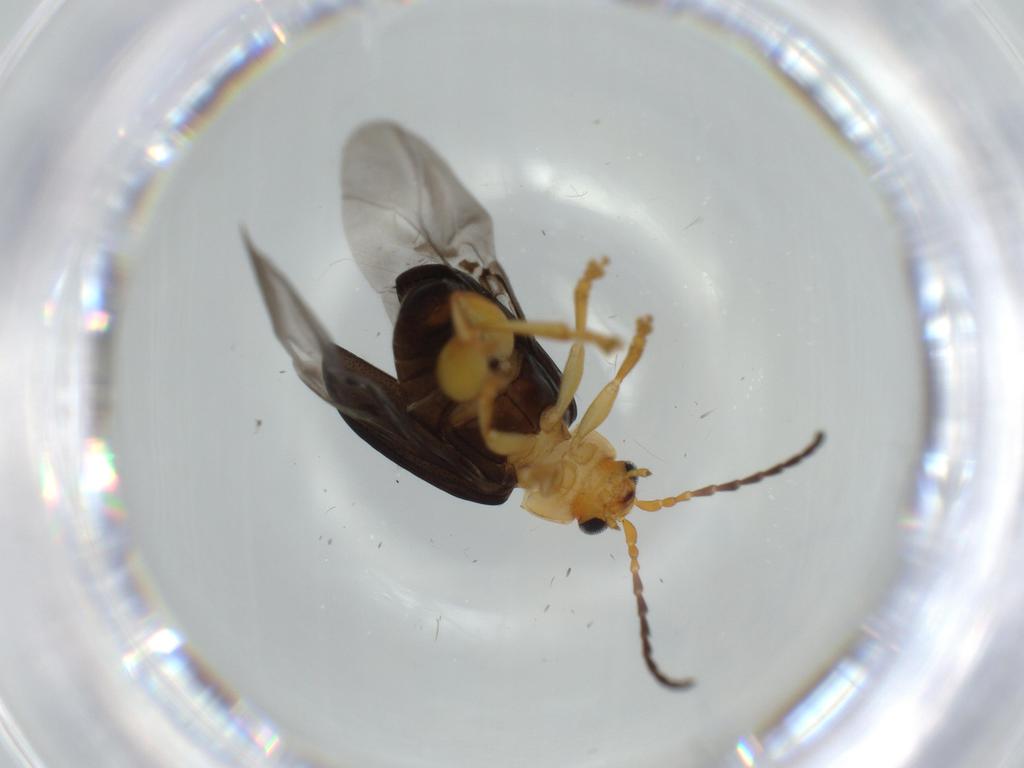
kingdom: Animalia
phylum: Arthropoda
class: Insecta
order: Coleoptera
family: Chrysomelidae
